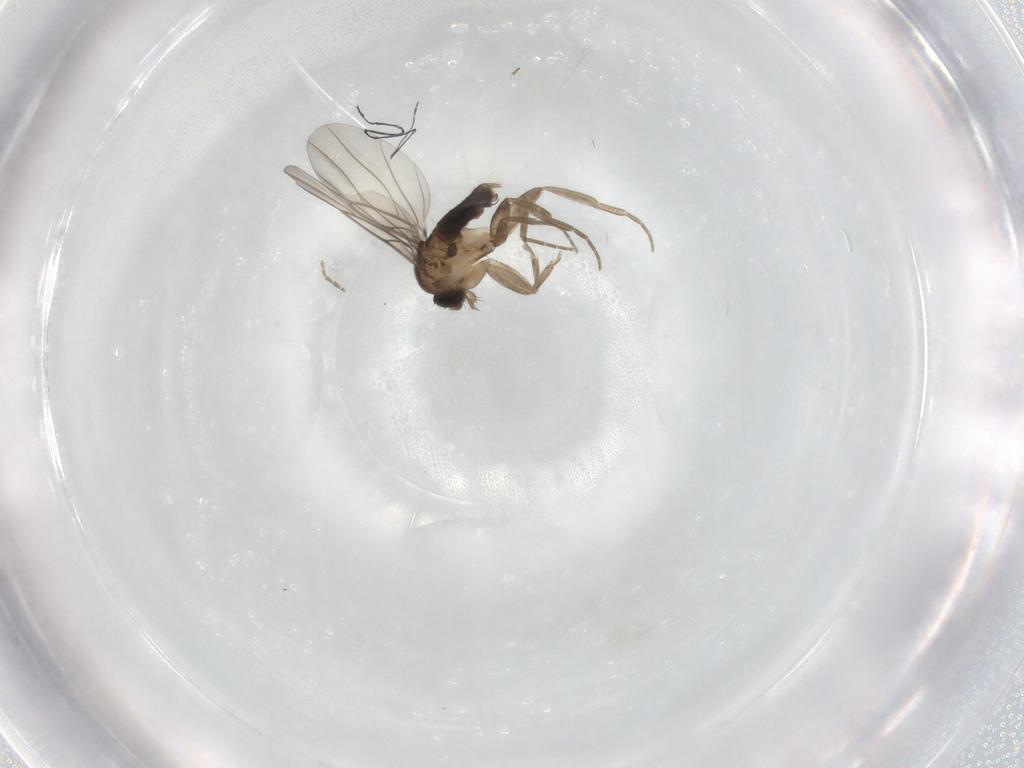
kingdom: Animalia
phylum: Arthropoda
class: Insecta
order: Diptera
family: Phoridae
